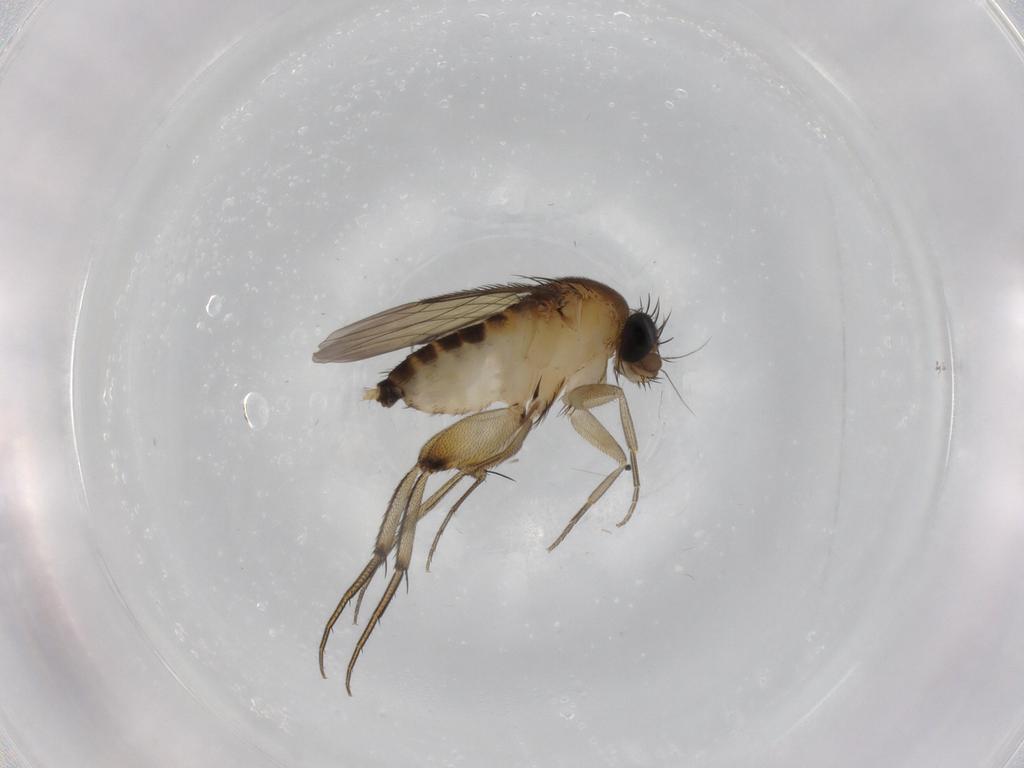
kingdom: Animalia
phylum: Arthropoda
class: Insecta
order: Diptera
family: Phoridae
